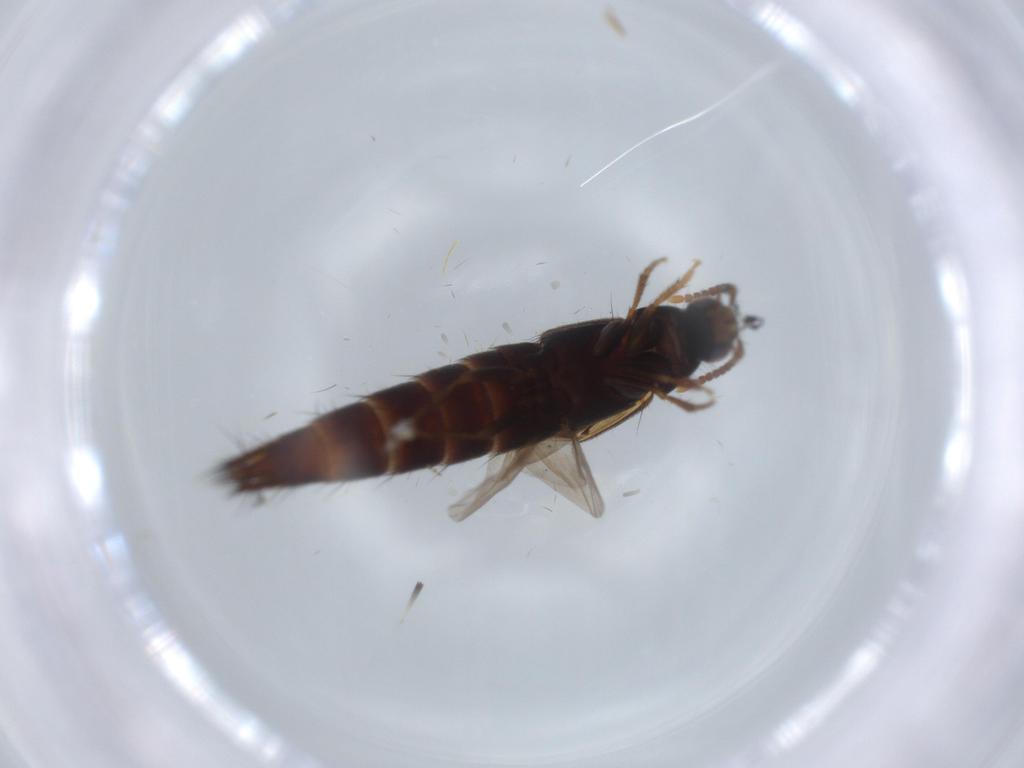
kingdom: Animalia
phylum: Arthropoda
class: Insecta
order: Coleoptera
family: Staphylinidae
